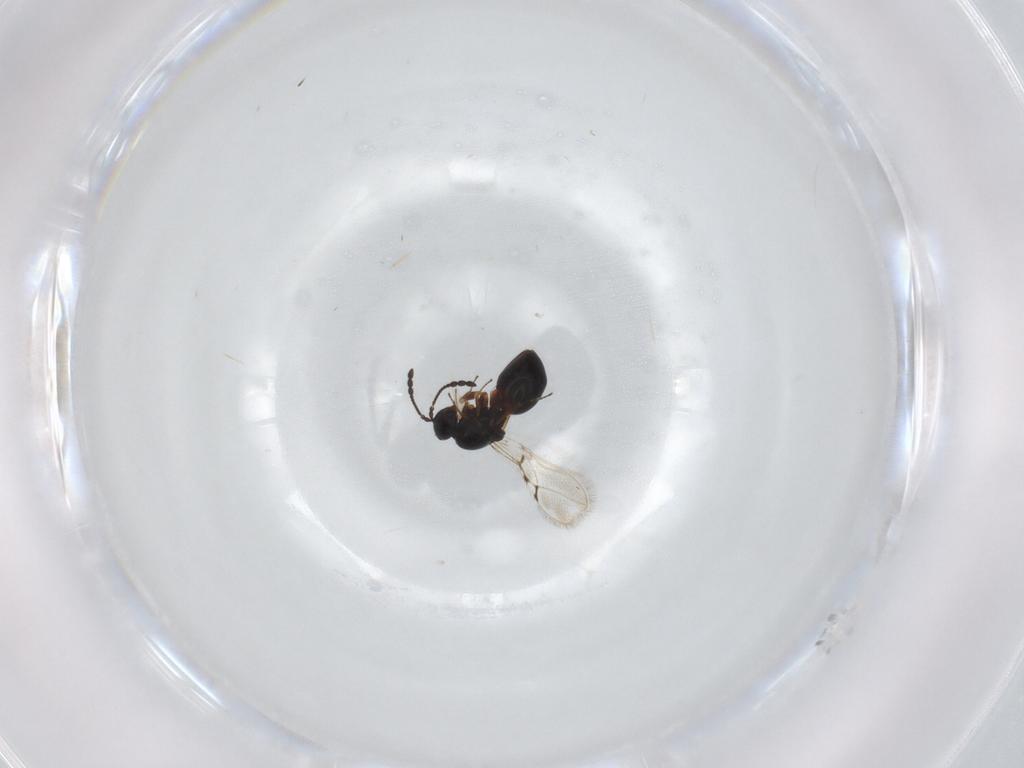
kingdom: Animalia
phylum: Arthropoda
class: Insecta
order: Hymenoptera
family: Figitidae
